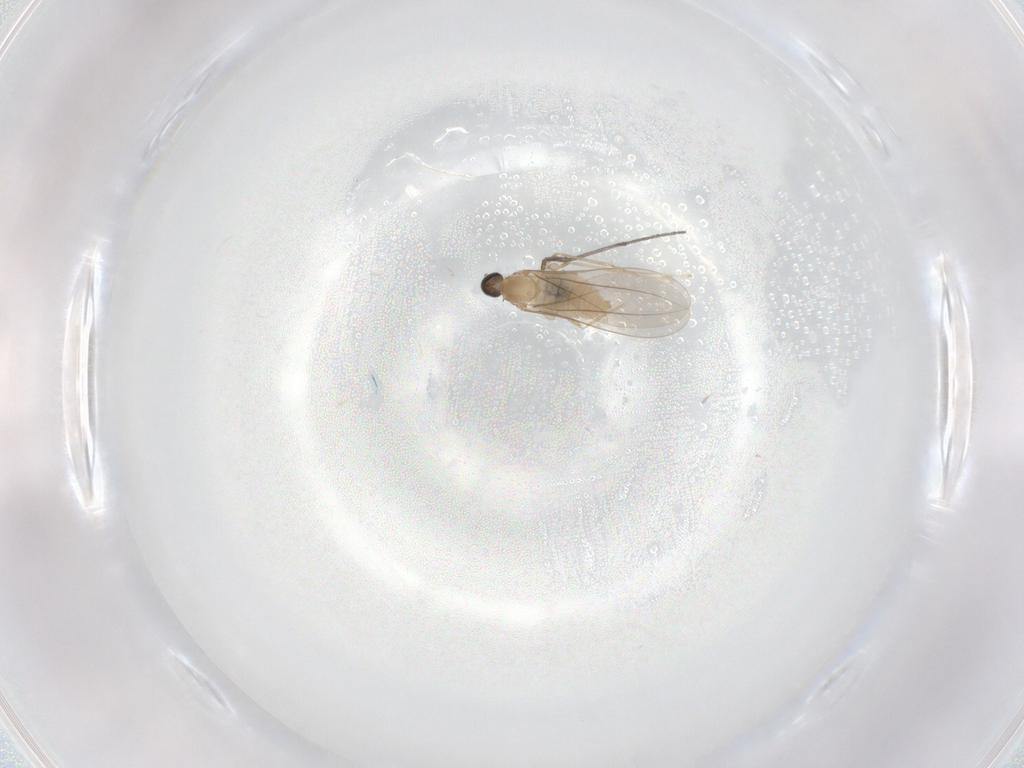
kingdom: Animalia
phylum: Arthropoda
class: Insecta
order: Diptera
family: Cecidomyiidae
